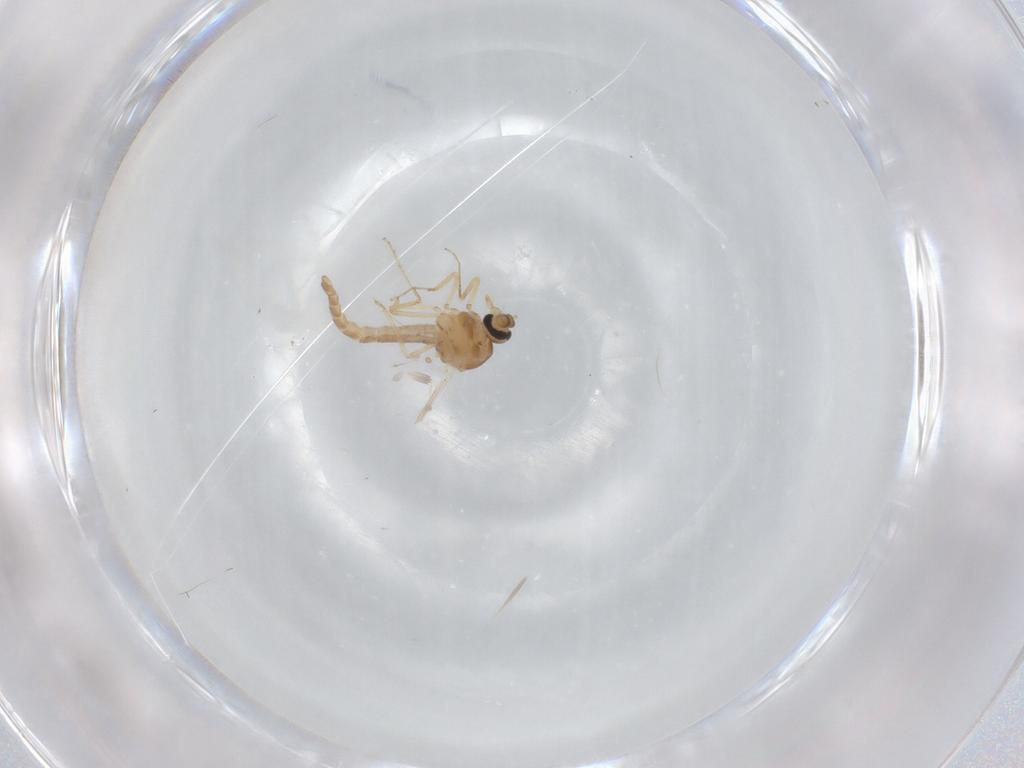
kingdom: Animalia
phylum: Arthropoda
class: Insecta
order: Diptera
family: Ceratopogonidae
